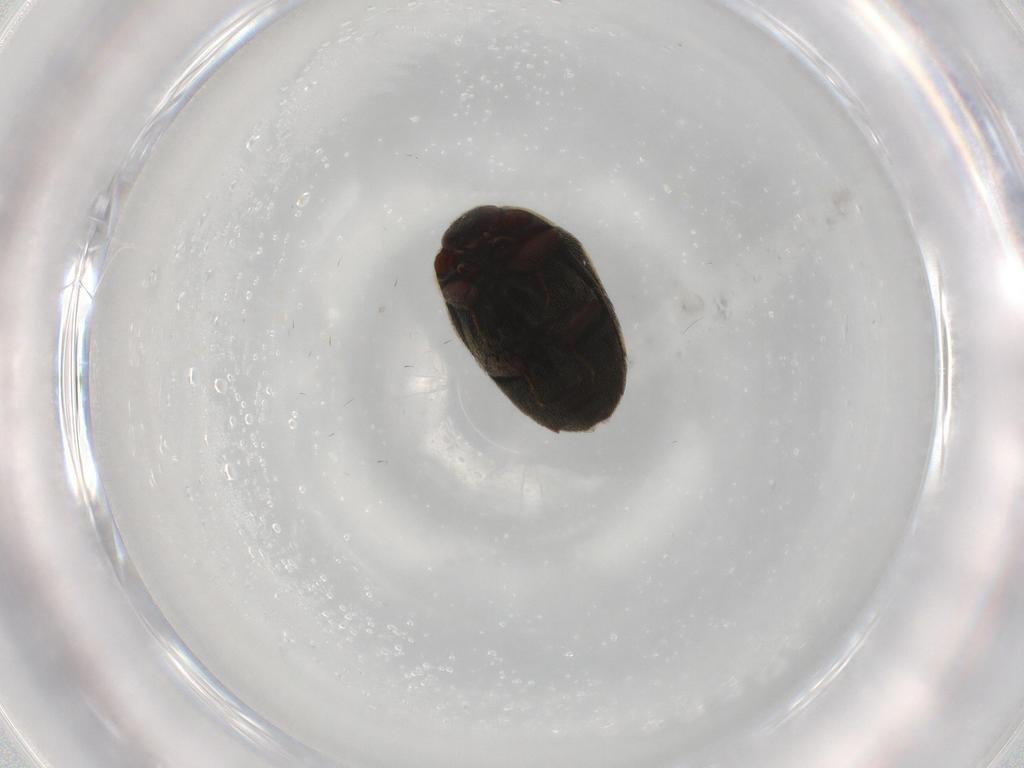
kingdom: Animalia
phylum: Arthropoda
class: Insecta
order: Coleoptera
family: Dermestidae
